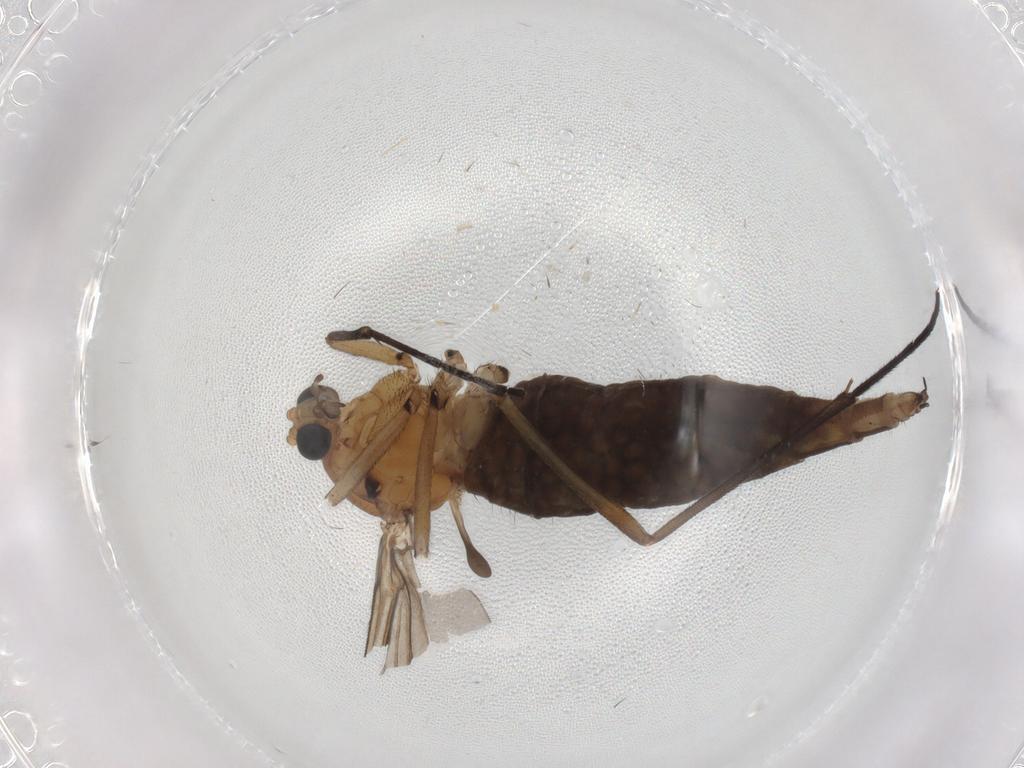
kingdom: Animalia
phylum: Arthropoda
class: Insecta
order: Diptera
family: Sciaridae
